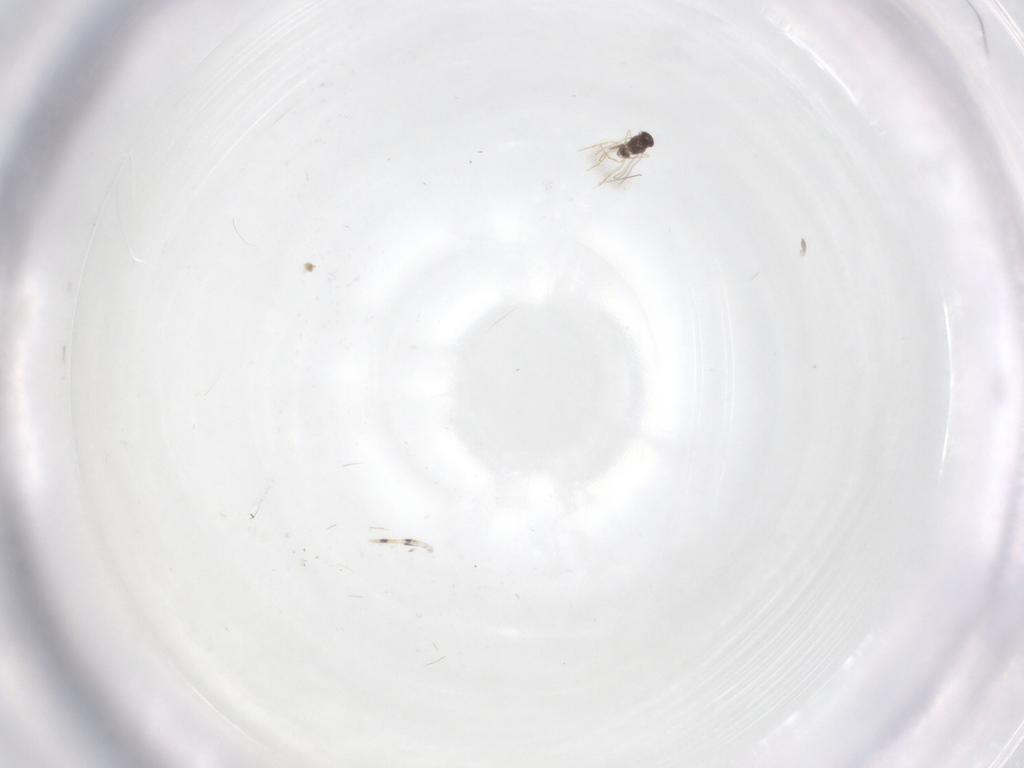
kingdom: Animalia
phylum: Arthropoda
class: Insecta
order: Hymenoptera
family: Mymaridae
